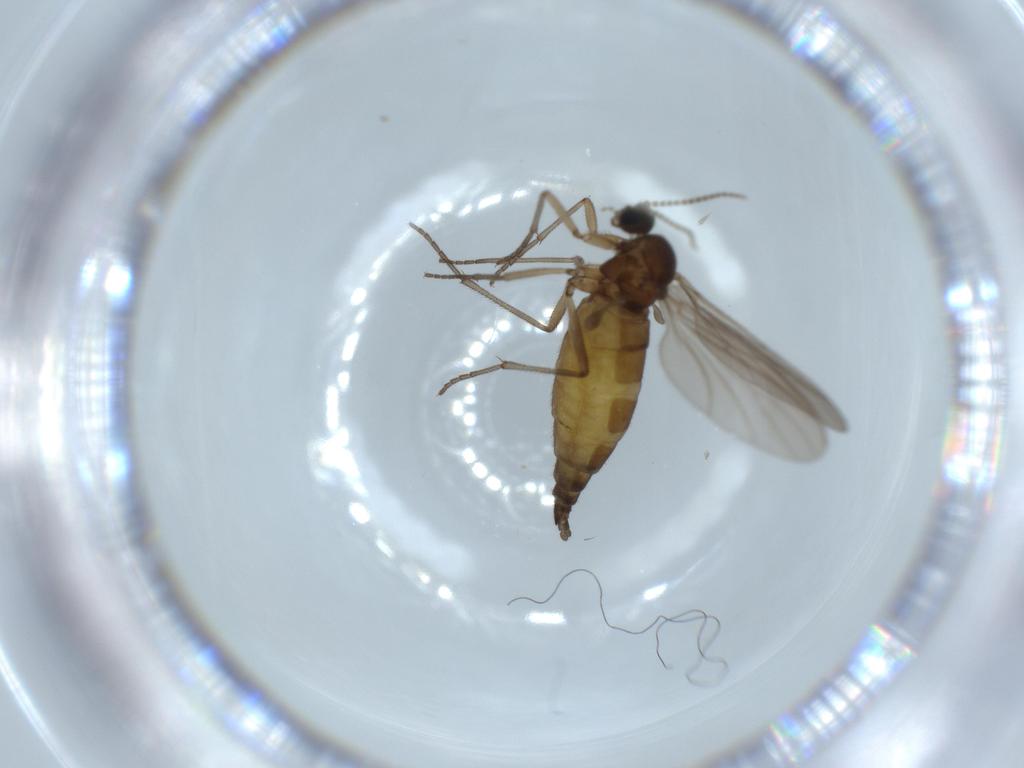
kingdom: Animalia
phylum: Arthropoda
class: Insecta
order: Diptera
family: Sciaridae
